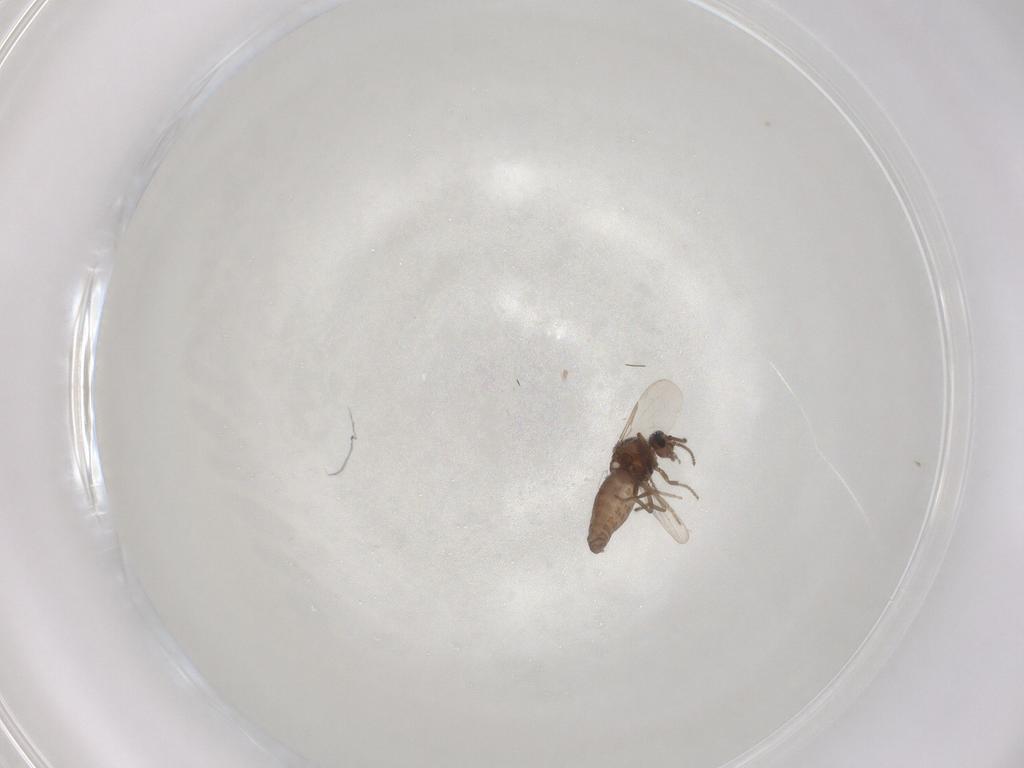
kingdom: Animalia
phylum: Arthropoda
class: Insecta
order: Diptera
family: Ceratopogonidae
